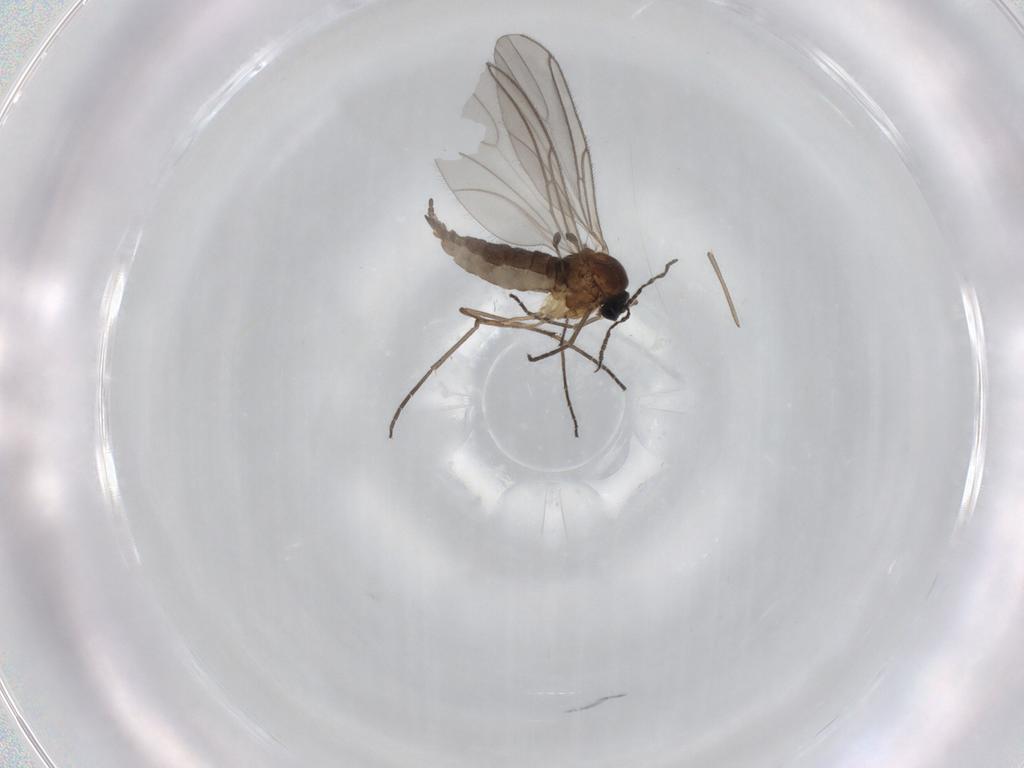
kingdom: Animalia
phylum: Arthropoda
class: Insecta
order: Diptera
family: Sciaridae
